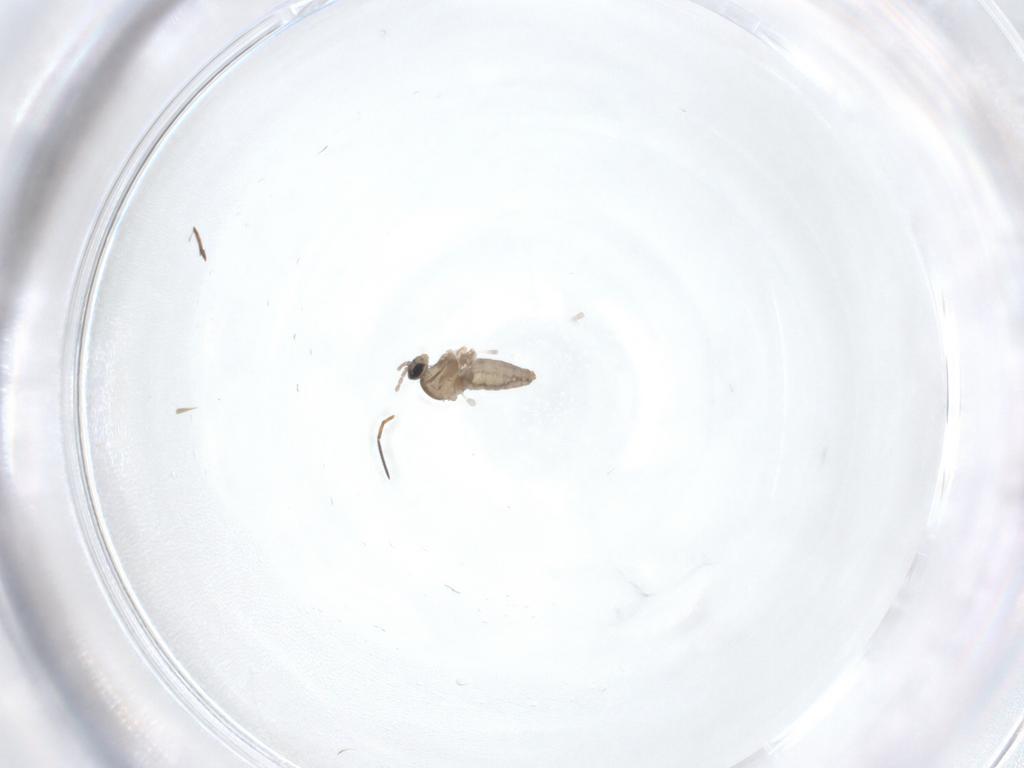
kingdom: Animalia
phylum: Arthropoda
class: Insecta
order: Diptera
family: Cecidomyiidae
